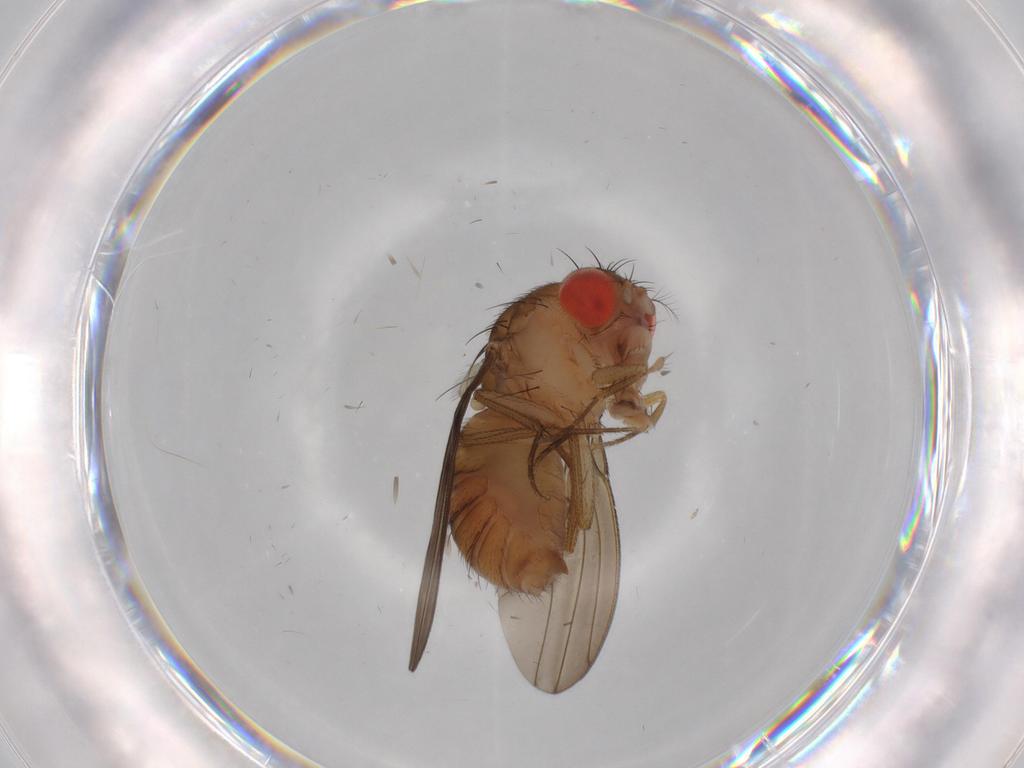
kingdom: Animalia
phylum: Arthropoda
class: Insecta
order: Diptera
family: Drosophilidae
